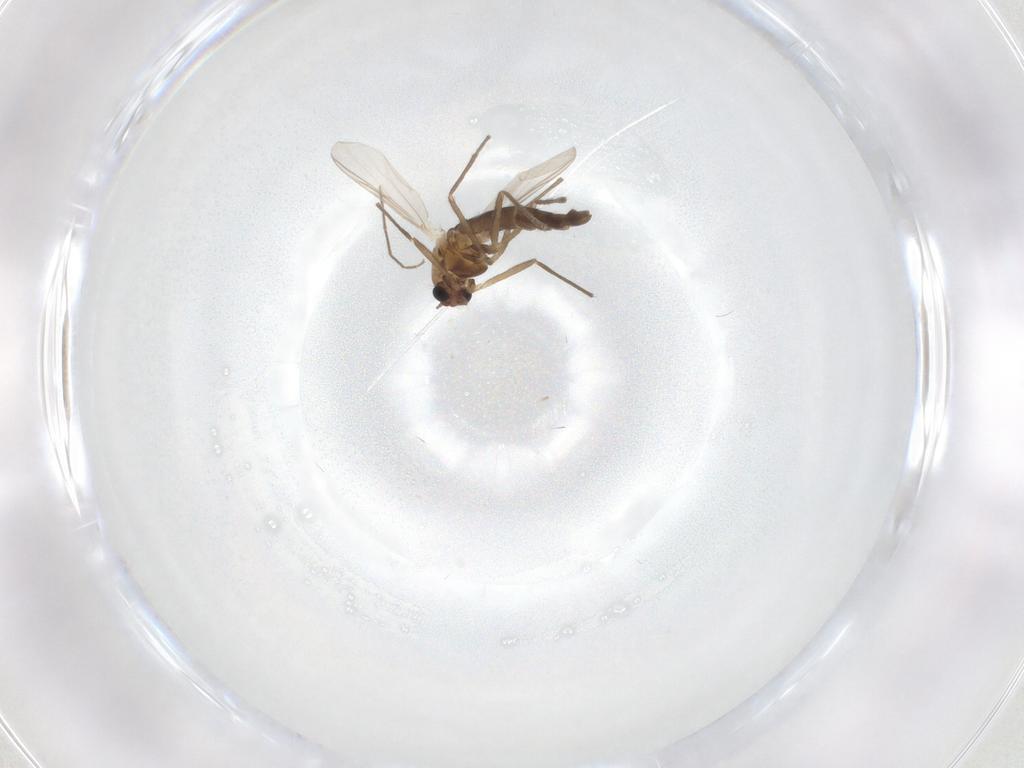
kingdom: Animalia
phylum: Arthropoda
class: Insecta
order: Diptera
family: Chironomidae
